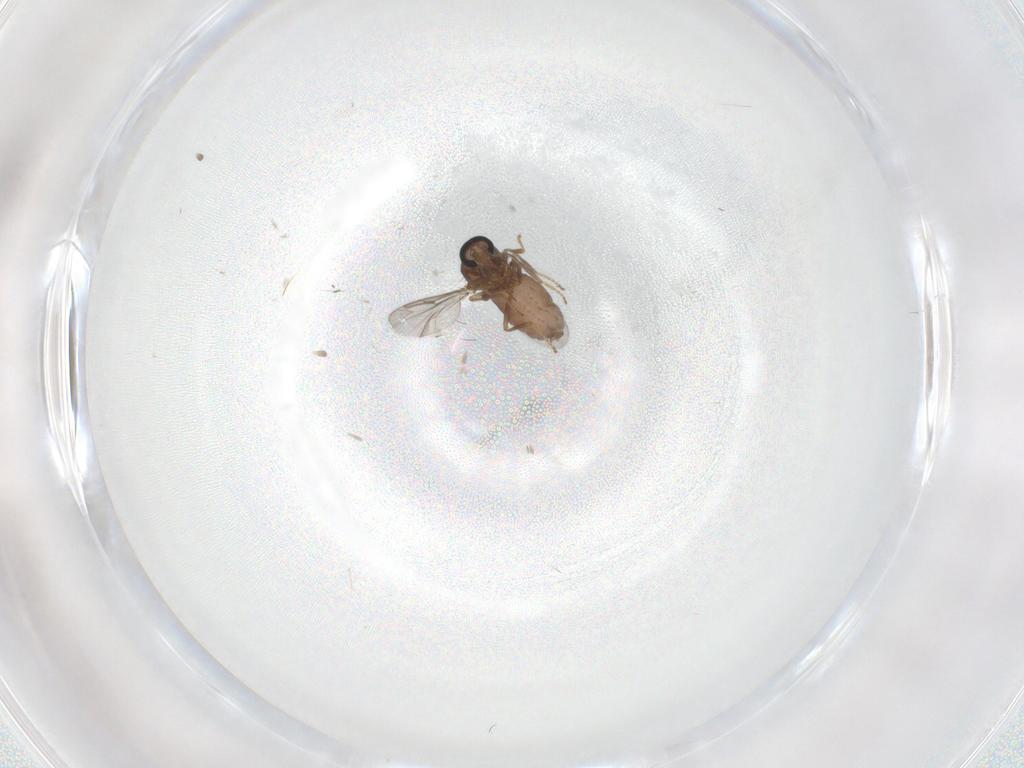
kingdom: Animalia
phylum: Arthropoda
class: Insecta
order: Diptera
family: Ceratopogonidae
